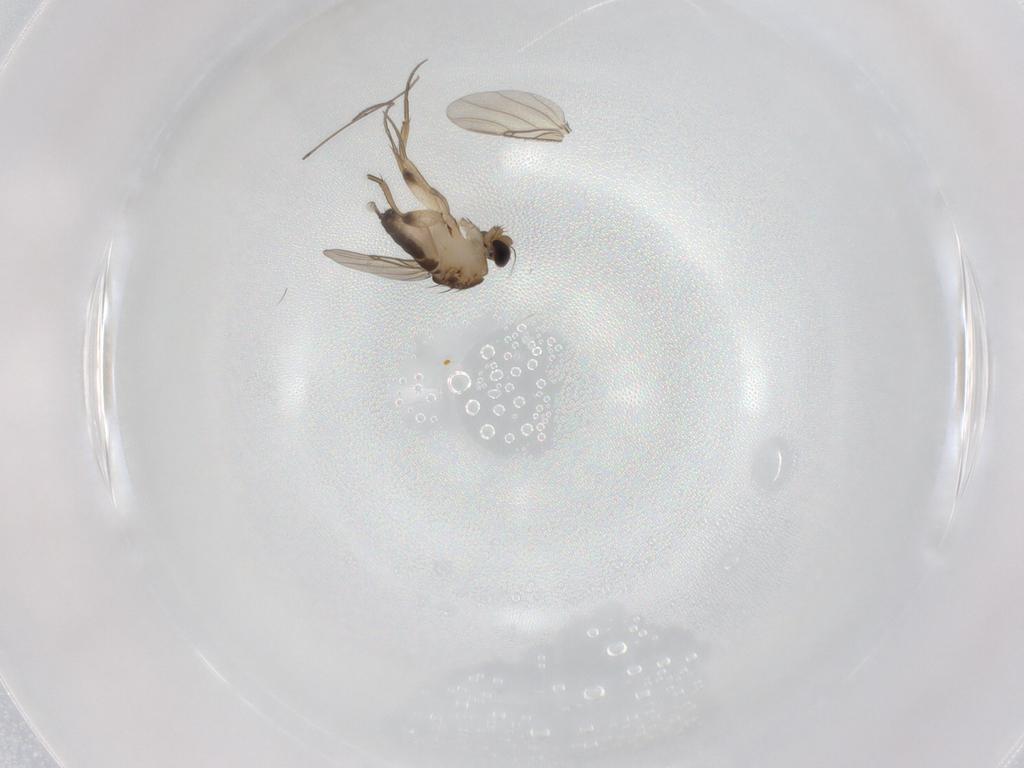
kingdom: Animalia
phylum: Arthropoda
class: Insecta
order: Diptera
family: Phoridae
